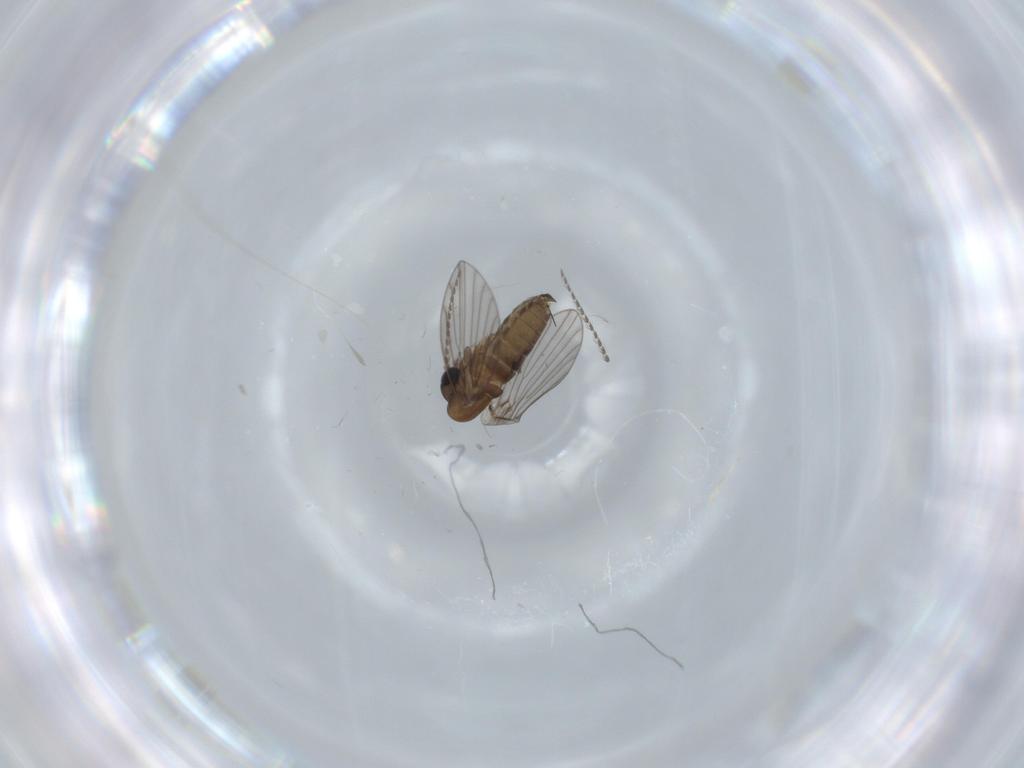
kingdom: Animalia
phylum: Arthropoda
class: Insecta
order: Diptera
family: Psychodidae
